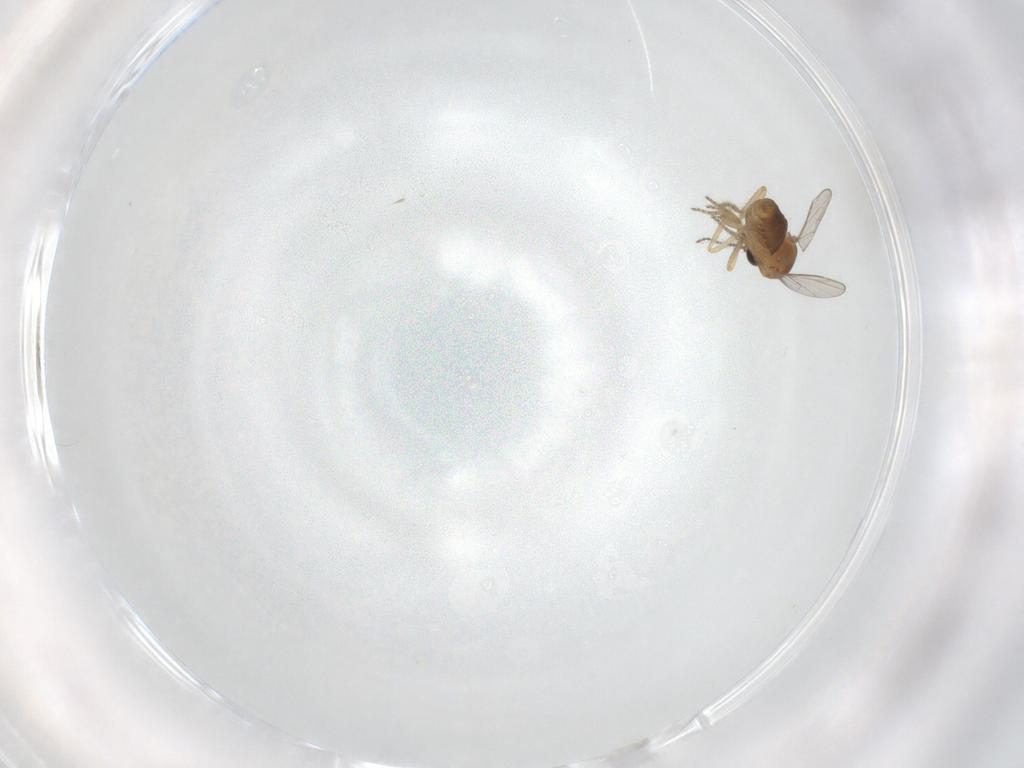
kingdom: Animalia
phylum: Arthropoda
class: Insecta
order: Diptera
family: Ceratopogonidae
